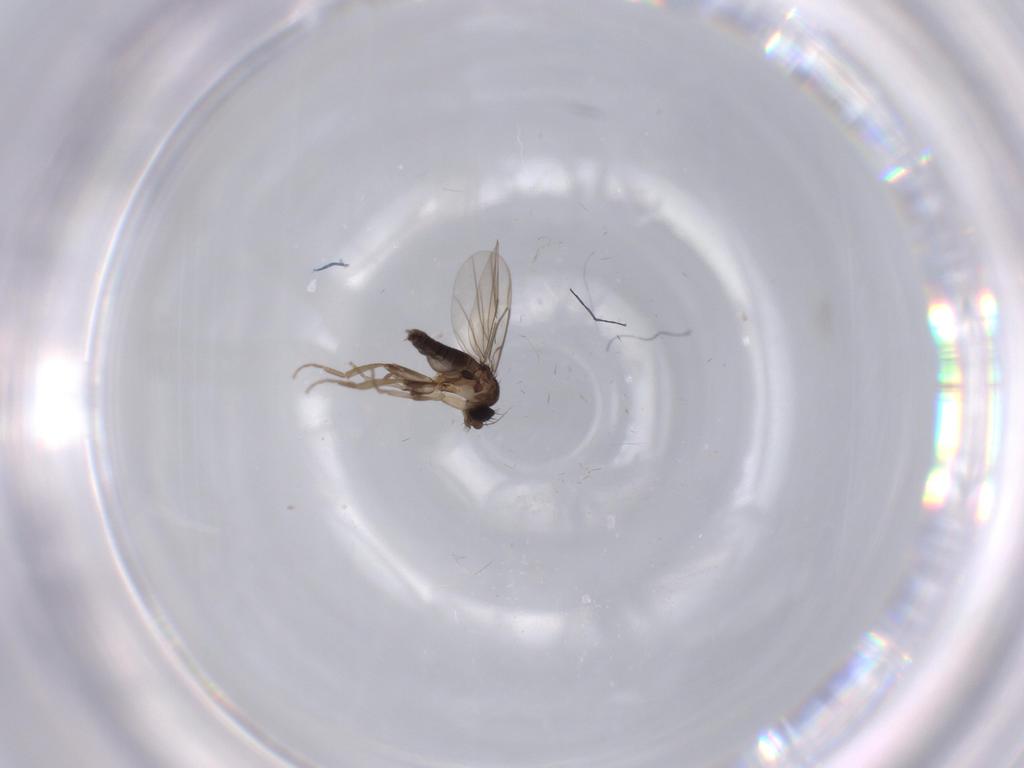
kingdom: Animalia
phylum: Arthropoda
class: Insecta
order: Diptera
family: Phoridae
